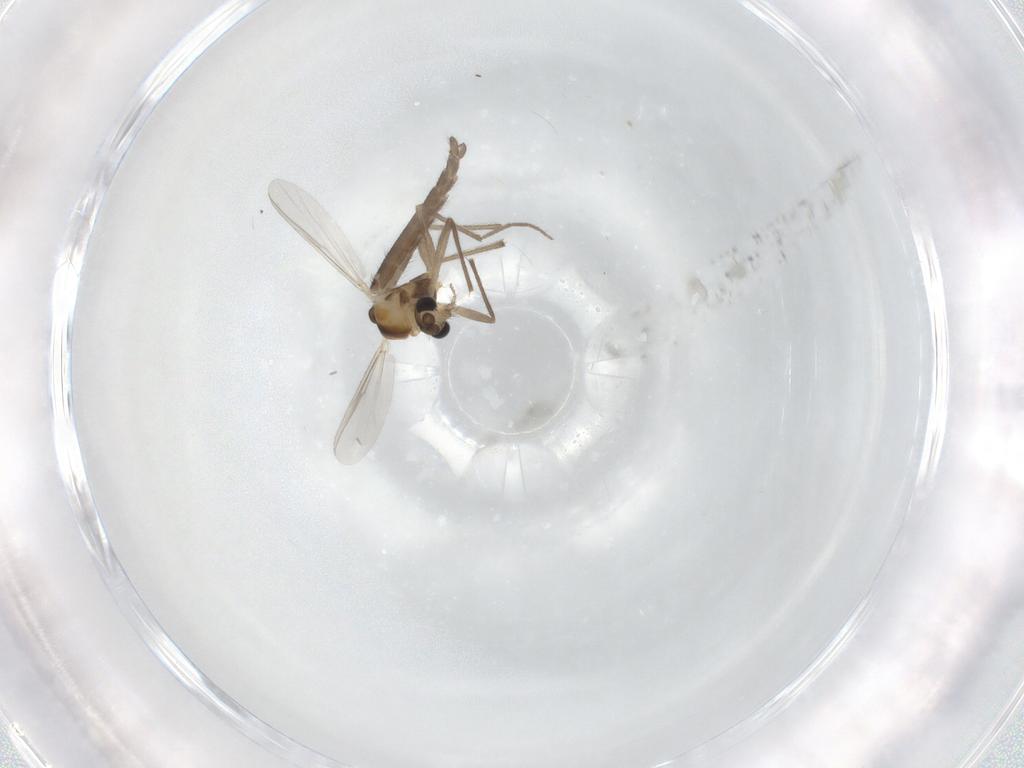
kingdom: Animalia
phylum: Arthropoda
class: Insecta
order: Diptera
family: Chironomidae
